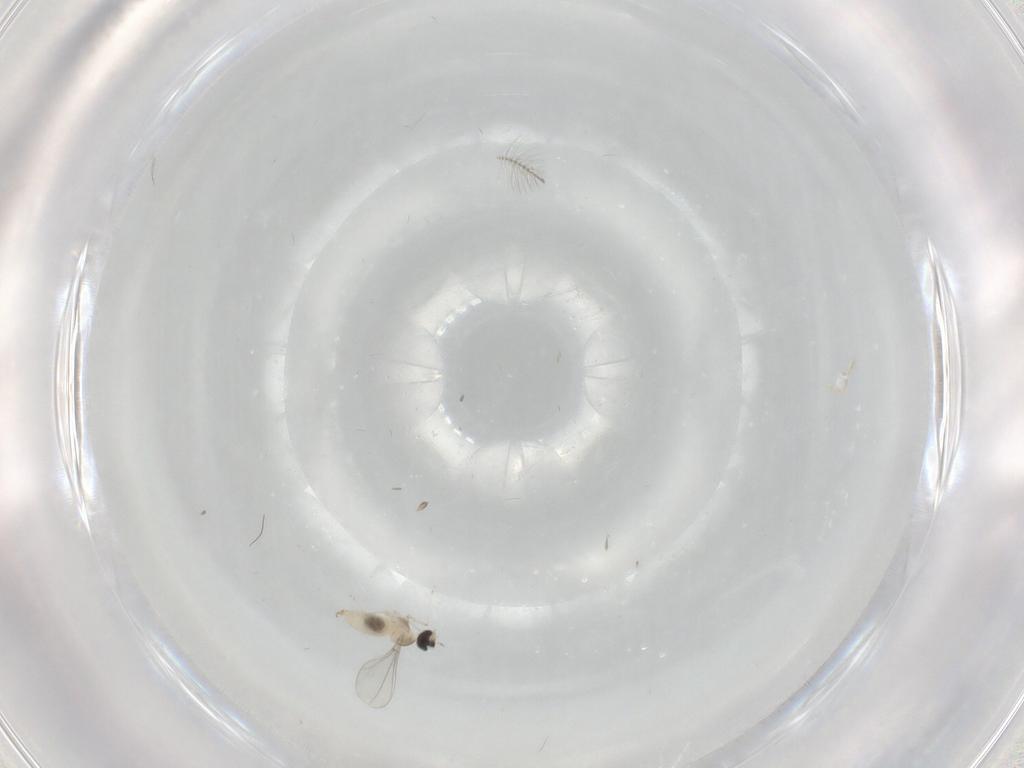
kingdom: Animalia
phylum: Arthropoda
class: Insecta
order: Diptera
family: Cecidomyiidae
